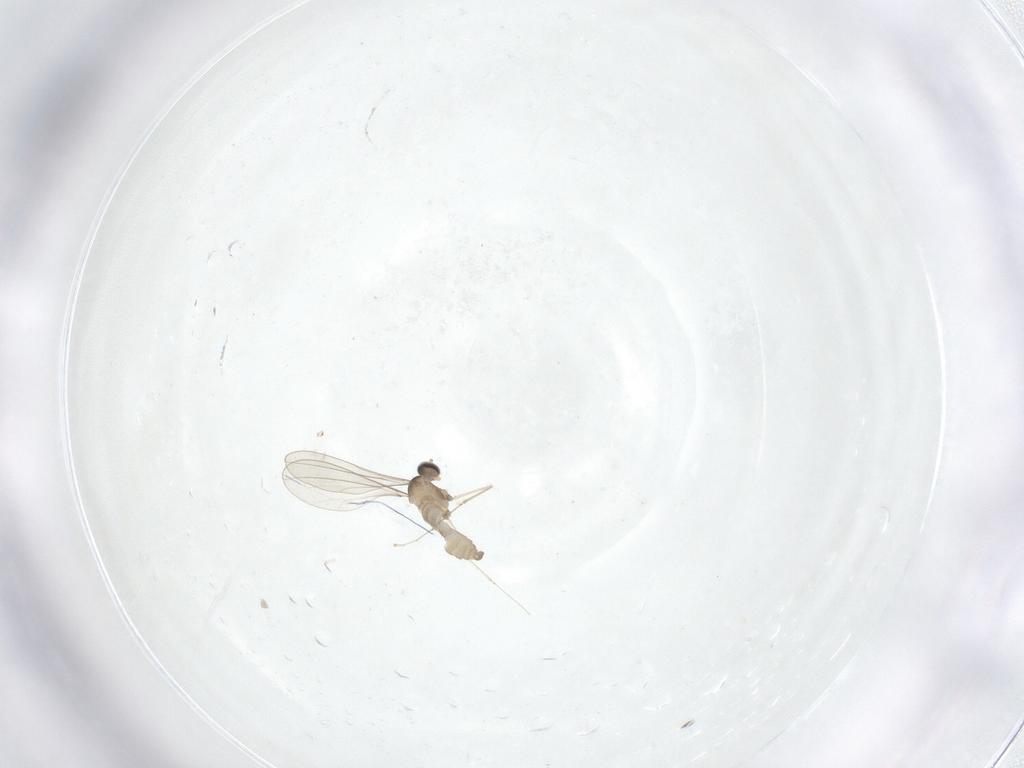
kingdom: Animalia
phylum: Arthropoda
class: Insecta
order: Diptera
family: Cecidomyiidae
